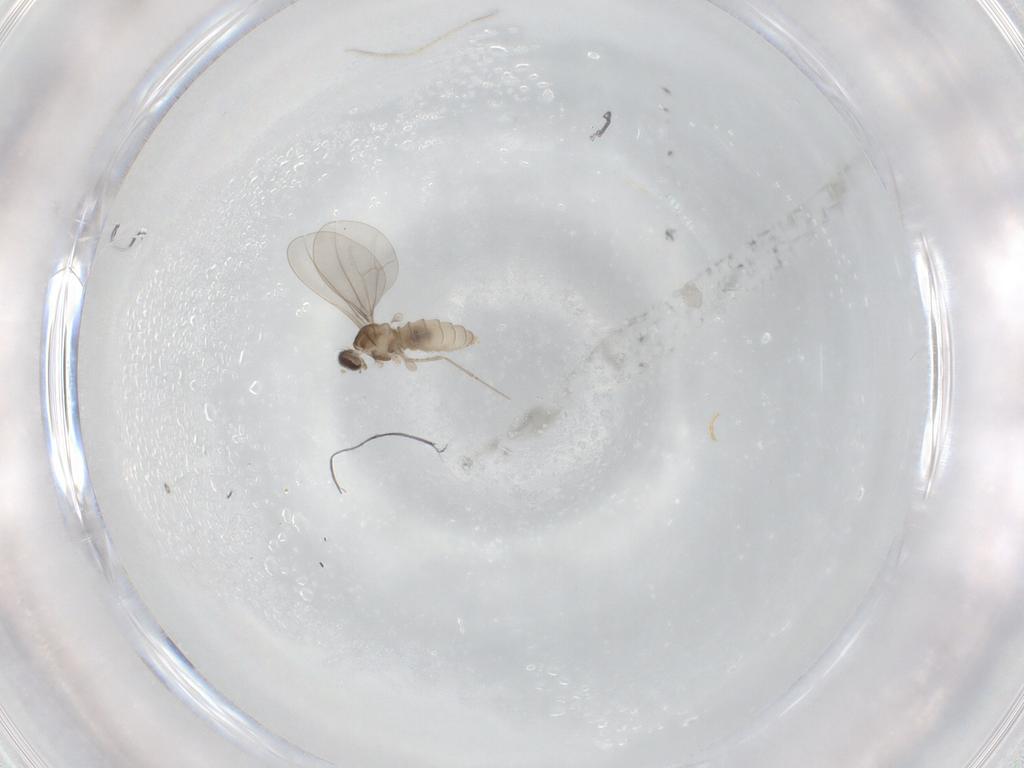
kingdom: Animalia
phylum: Arthropoda
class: Insecta
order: Diptera
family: Cecidomyiidae
